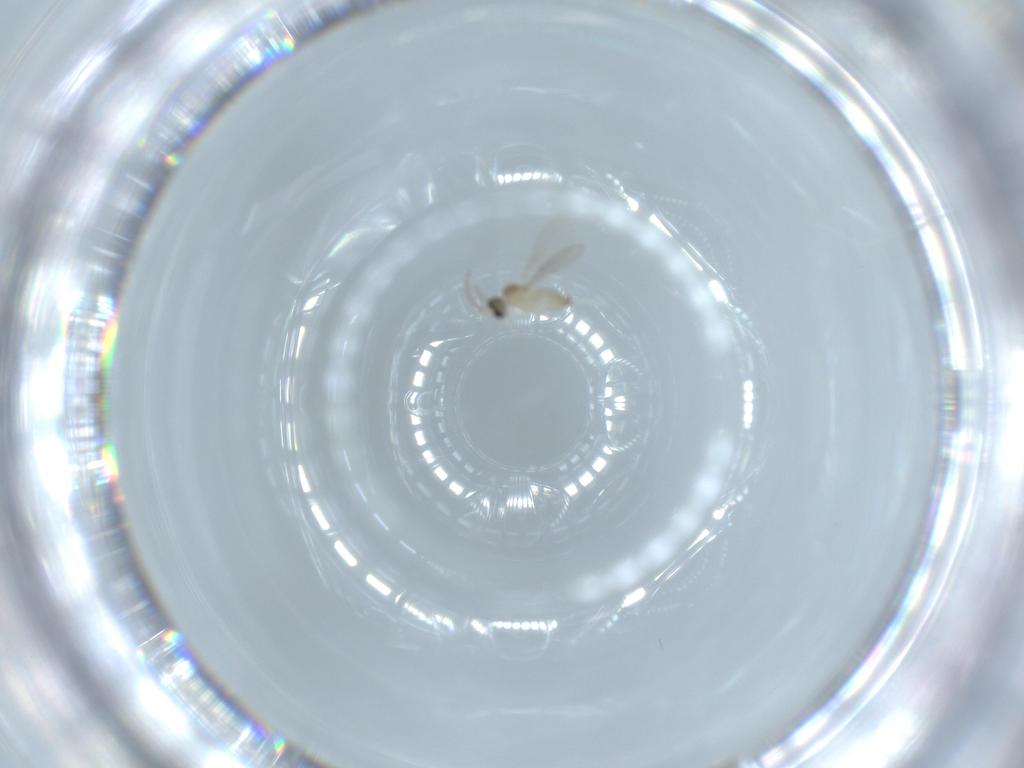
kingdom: Animalia
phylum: Arthropoda
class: Insecta
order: Diptera
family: Cecidomyiidae
